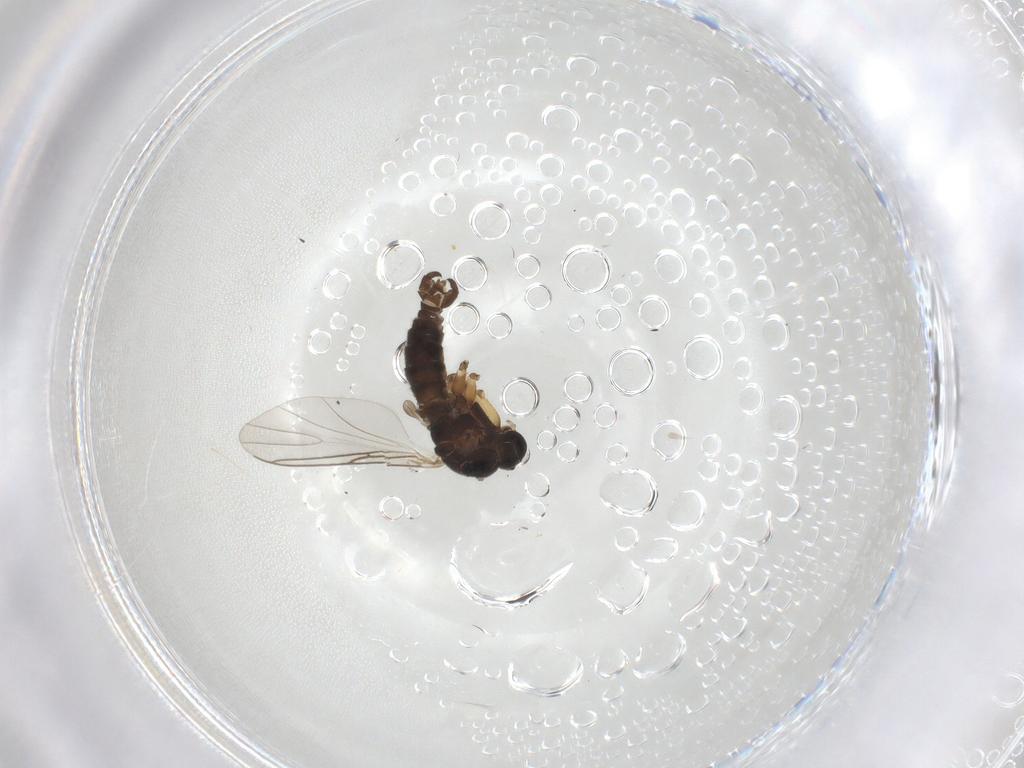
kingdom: Animalia
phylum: Arthropoda
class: Insecta
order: Diptera
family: Sciaridae
